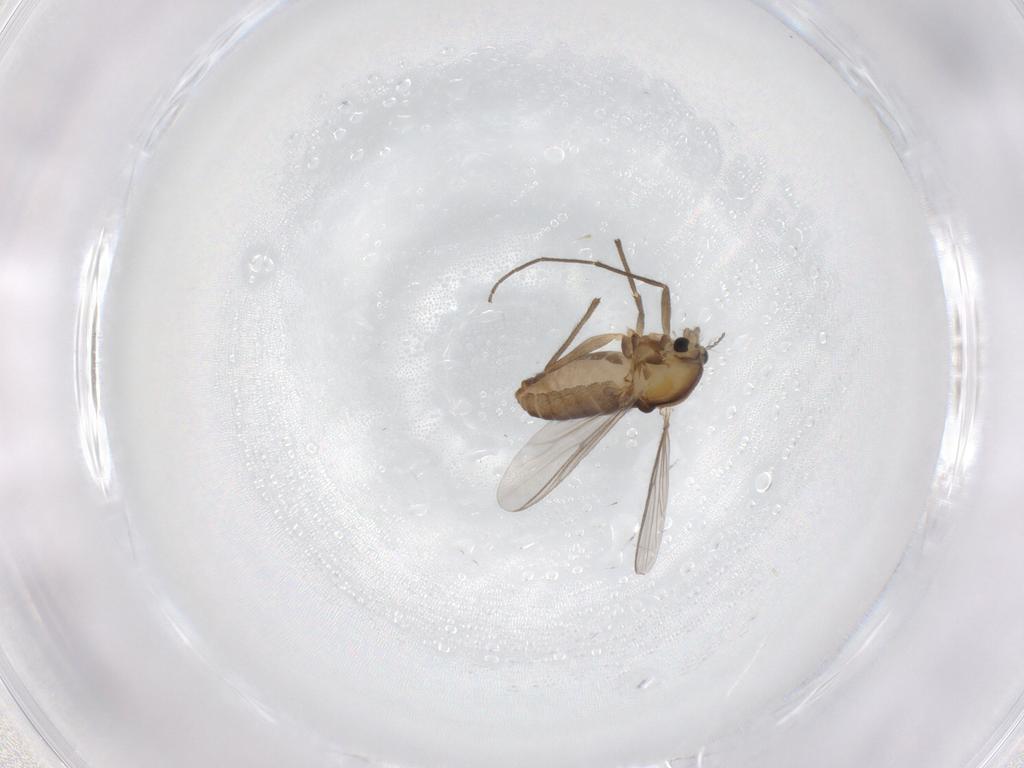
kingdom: Animalia
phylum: Arthropoda
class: Insecta
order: Diptera
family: Chironomidae
